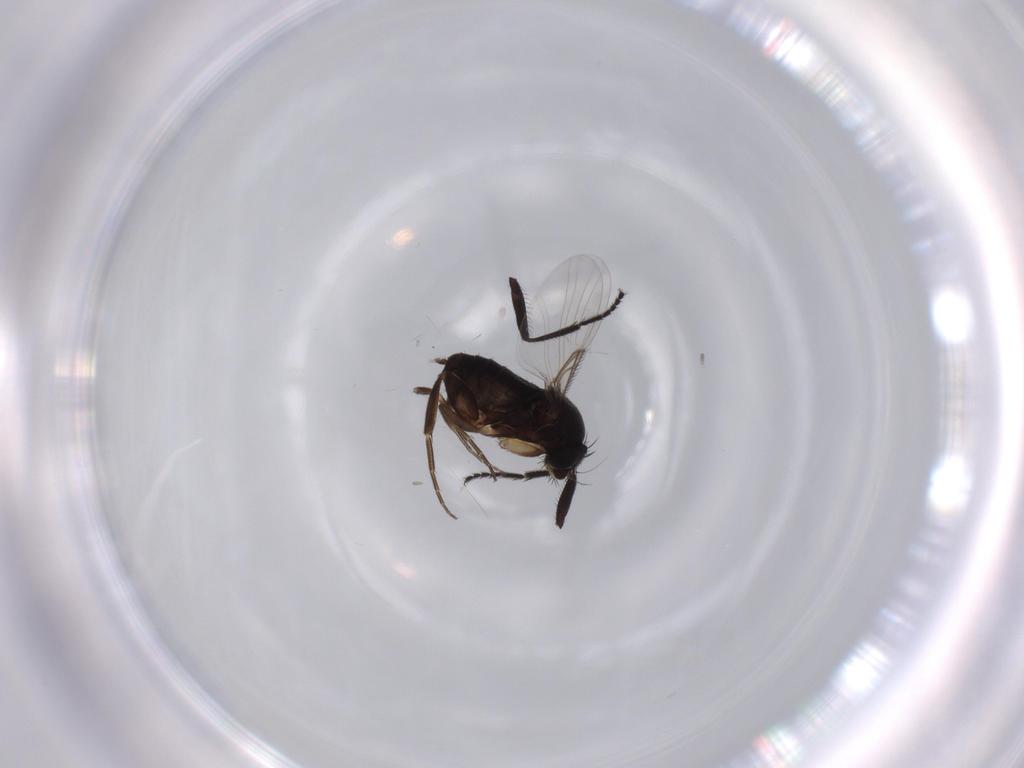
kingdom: Animalia
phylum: Arthropoda
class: Insecta
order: Diptera
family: Phoridae
